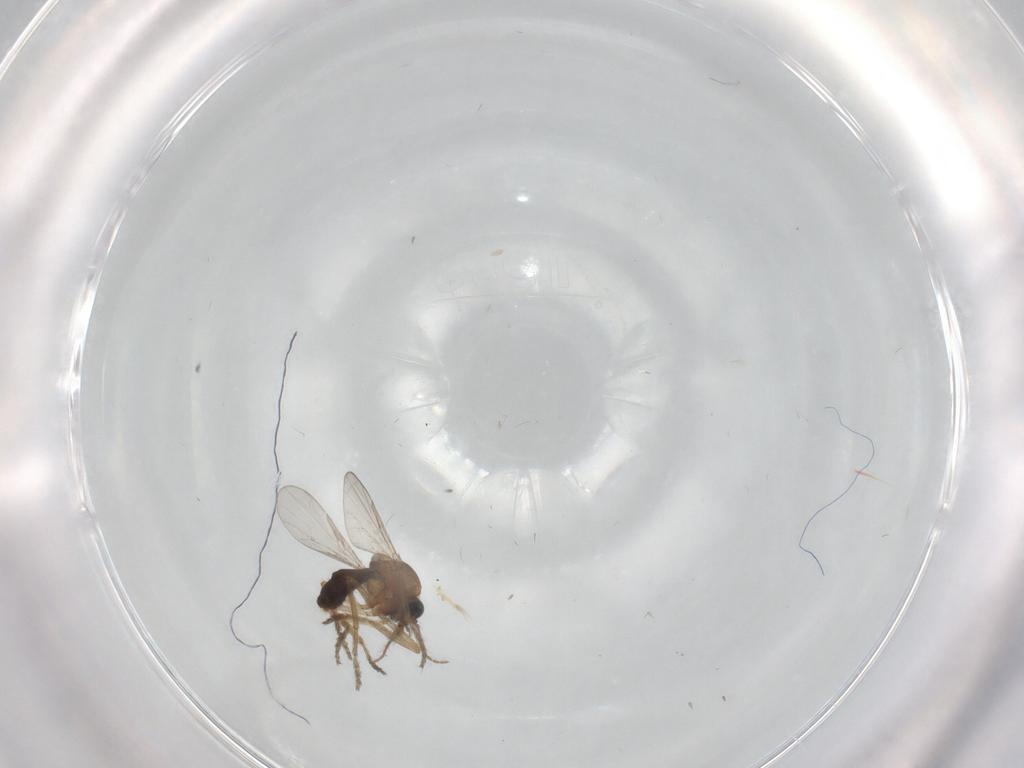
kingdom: Animalia
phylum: Arthropoda
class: Insecta
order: Diptera
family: Ceratopogonidae
